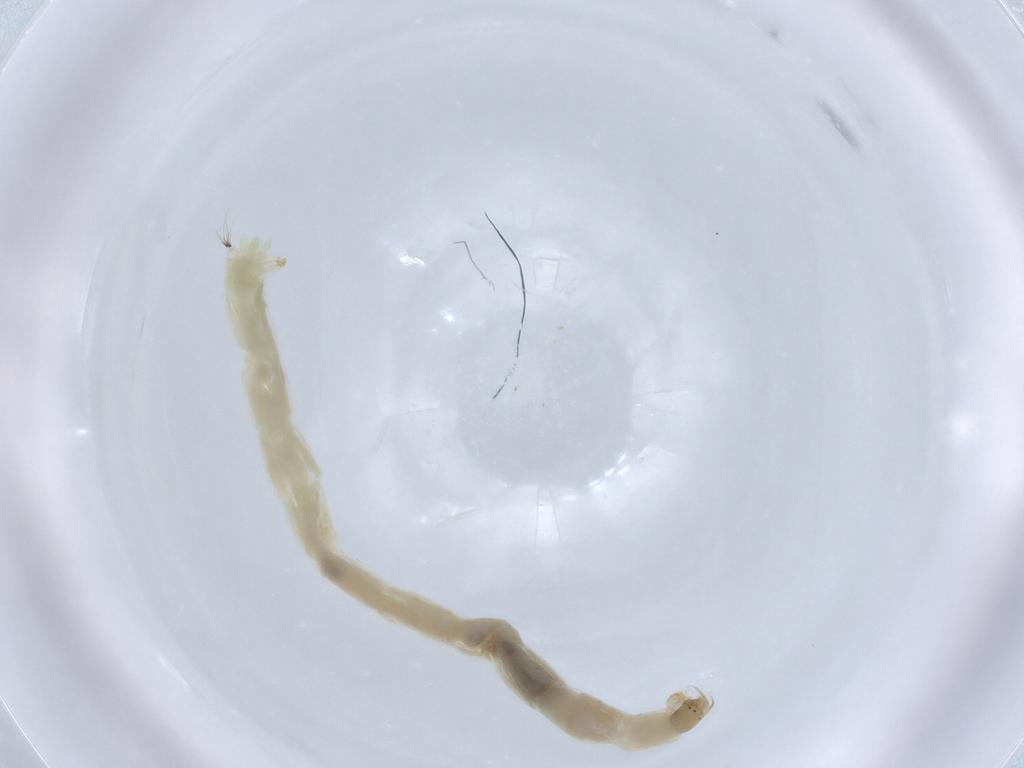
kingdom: Animalia
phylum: Arthropoda
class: Insecta
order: Diptera
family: Chironomidae
